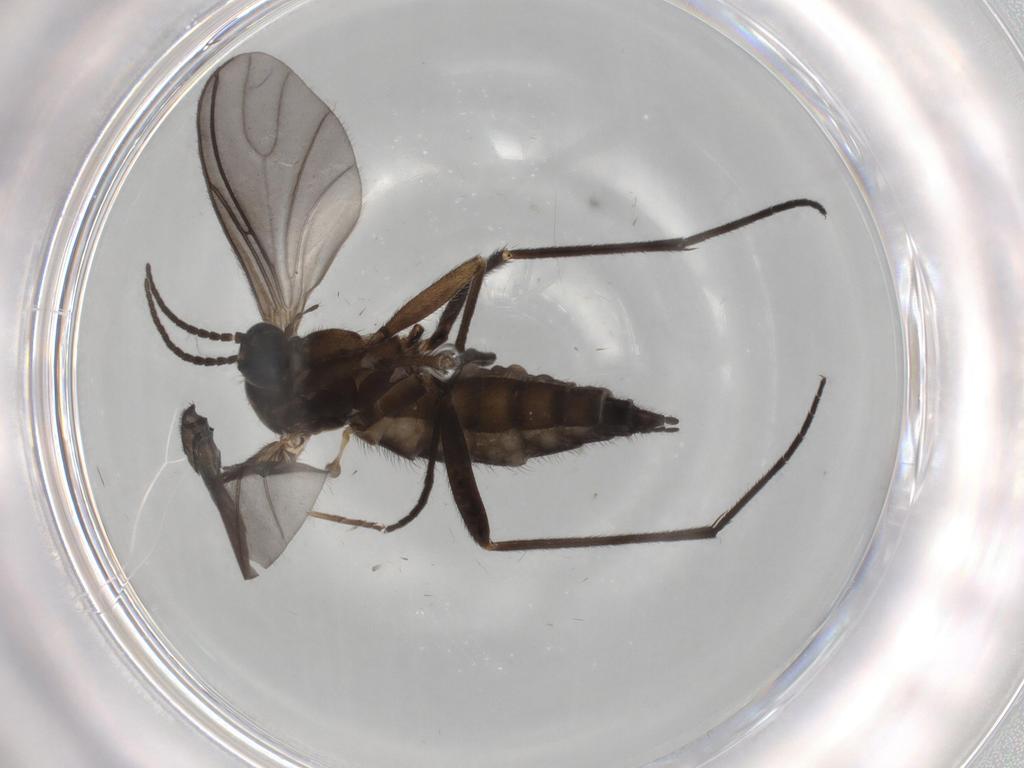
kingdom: Animalia
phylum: Arthropoda
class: Insecta
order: Diptera
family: Sciaridae
